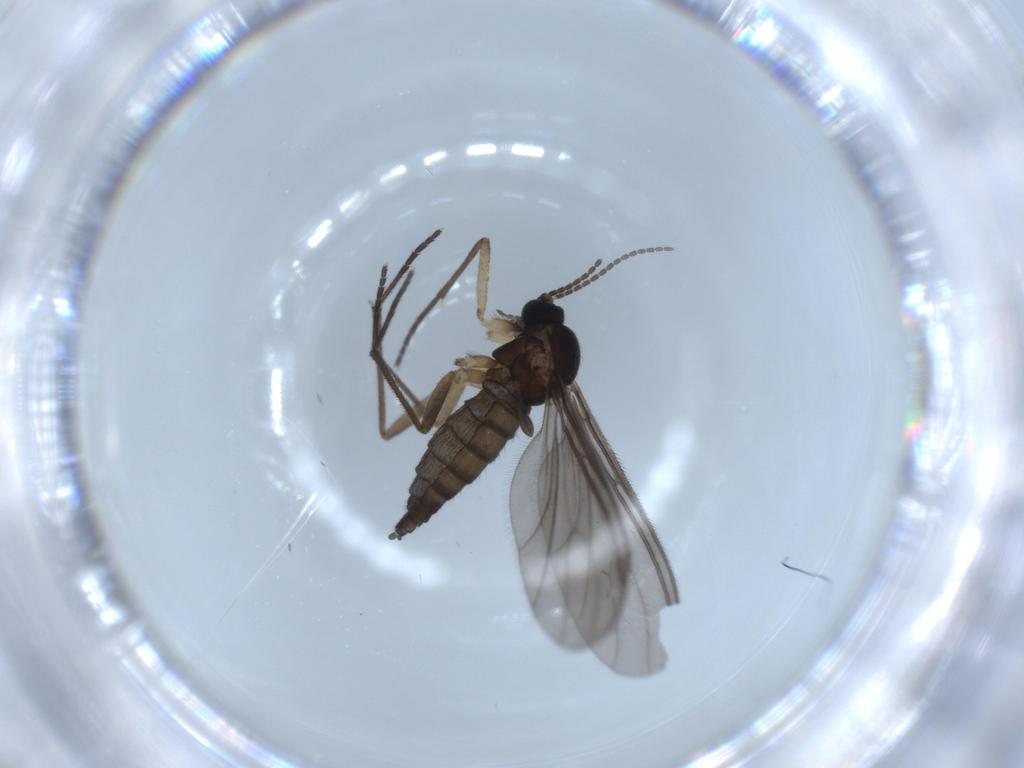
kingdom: Animalia
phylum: Arthropoda
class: Insecta
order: Diptera
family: Sciaridae
